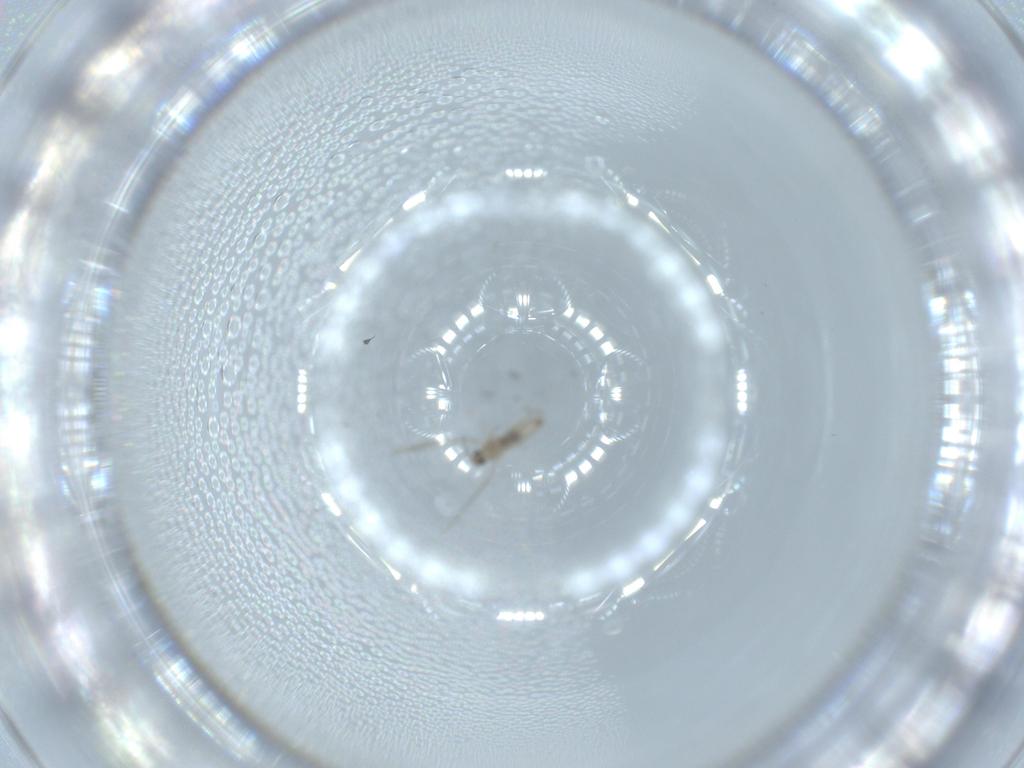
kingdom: Animalia
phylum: Arthropoda
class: Insecta
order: Diptera
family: Cecidomyiidae
